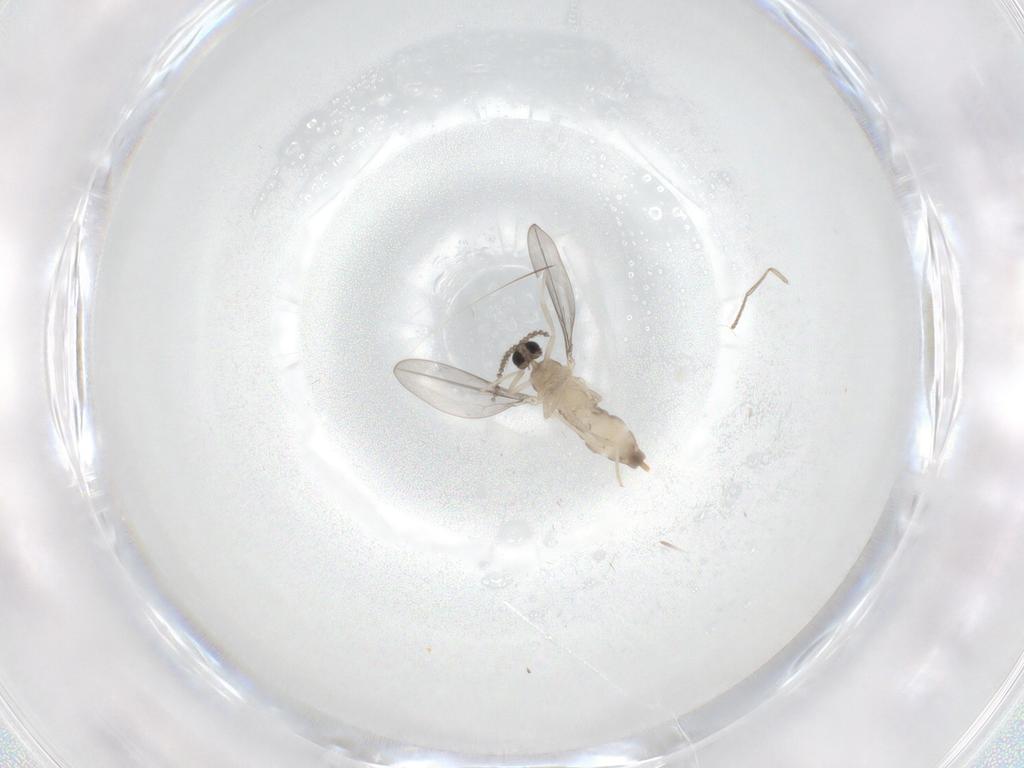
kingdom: Animalia
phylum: Arthropoda
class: Insecta
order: Diptera
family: Cecidomyiidae
